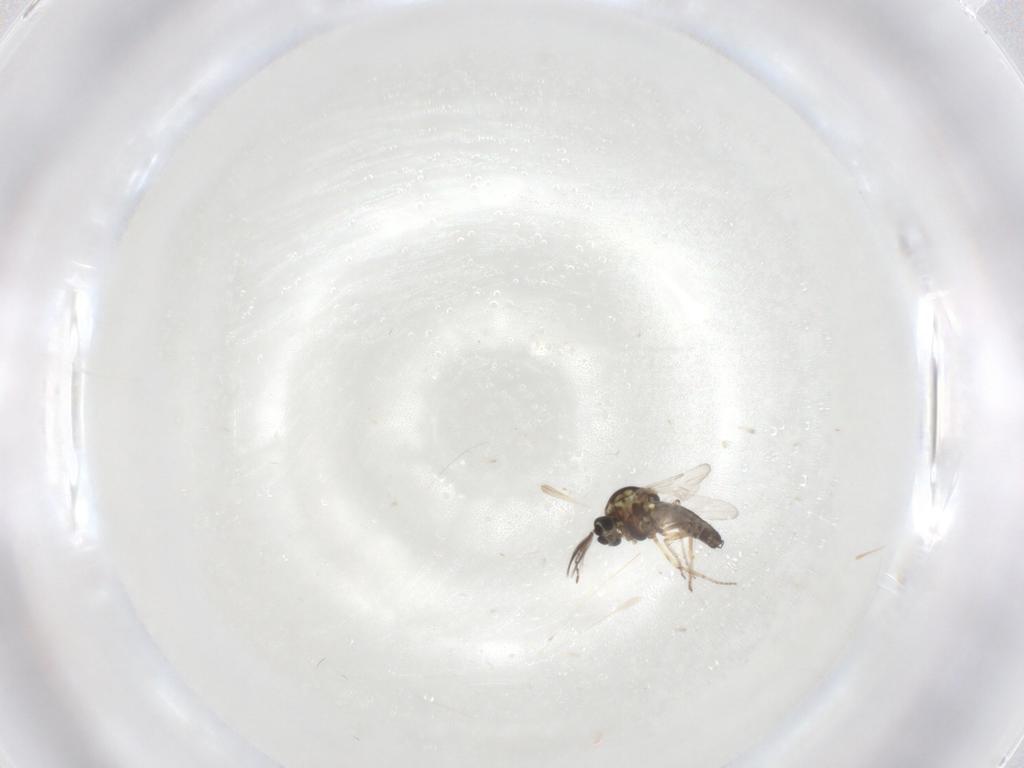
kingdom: Animalia
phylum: Arthropoda
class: Insecta
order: Diptera
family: Ceratopogonidae
